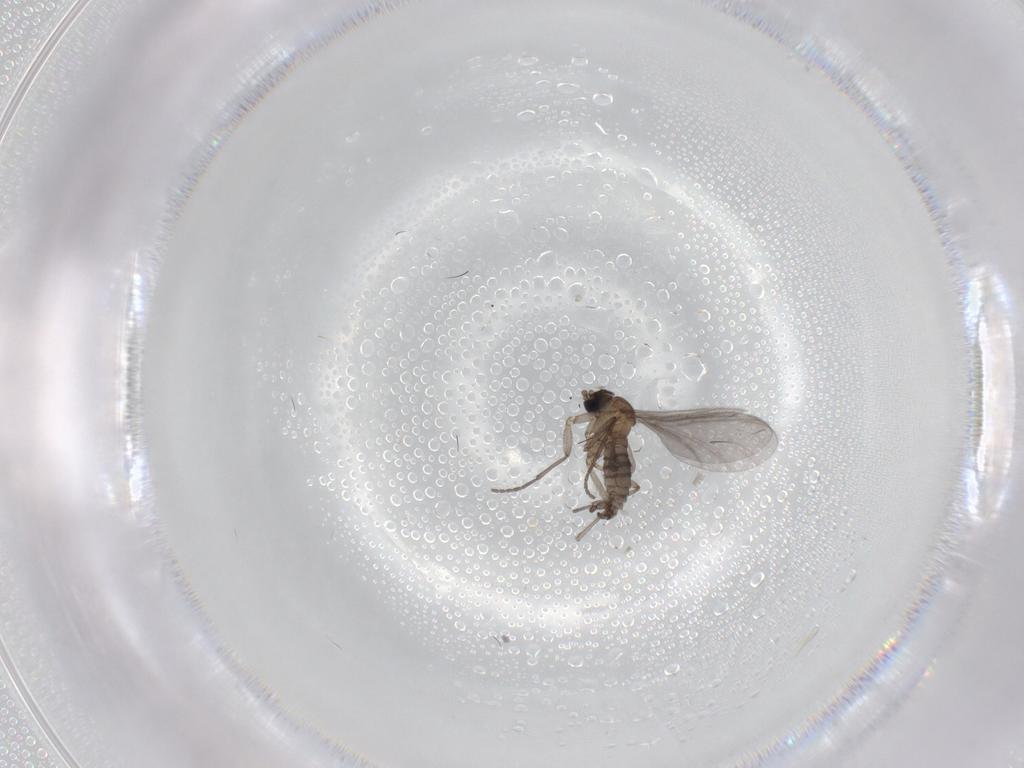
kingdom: Animalia
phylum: Arthropoda
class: Insecta
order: Diptera
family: Sciaridae
